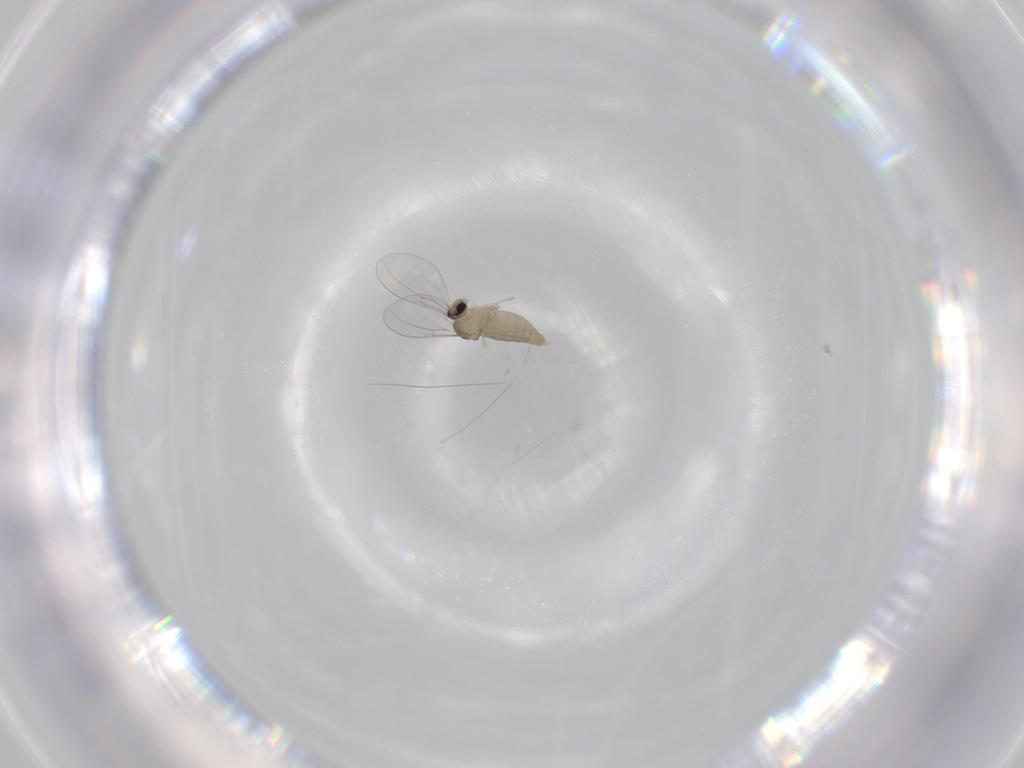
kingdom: Animalia
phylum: Arthropoda
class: Insecta
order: Diptera
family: Cecidomyiidae
